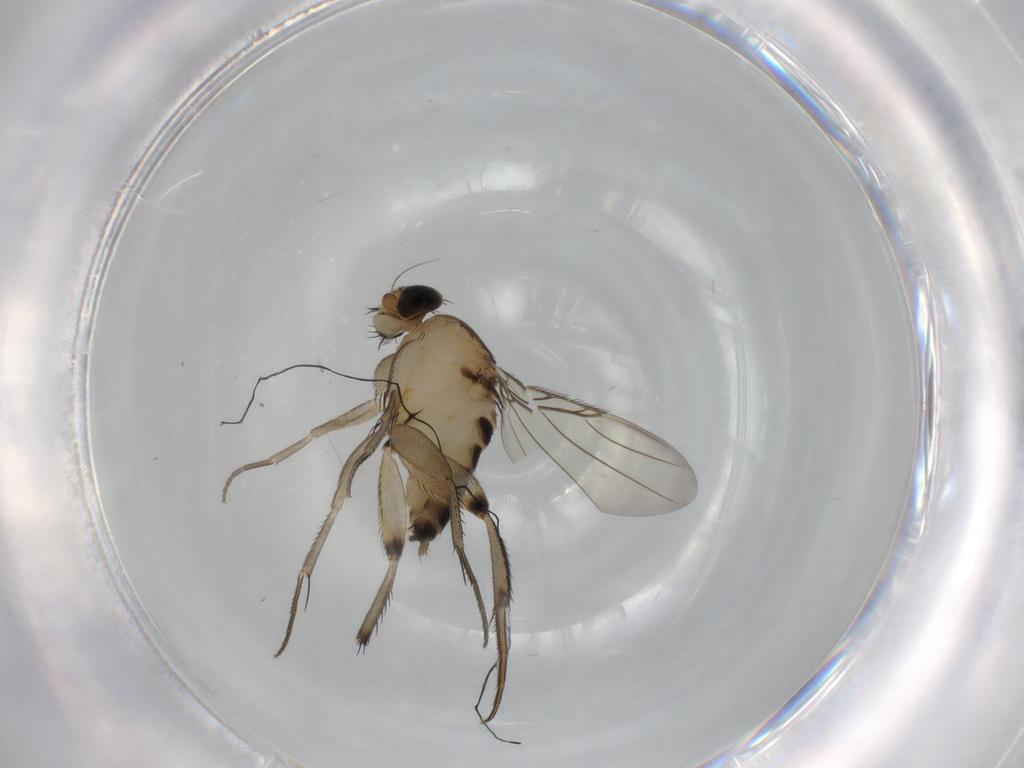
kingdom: Animalia
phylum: Arthropoda
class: Insecta
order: Diptera
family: Phoridae
